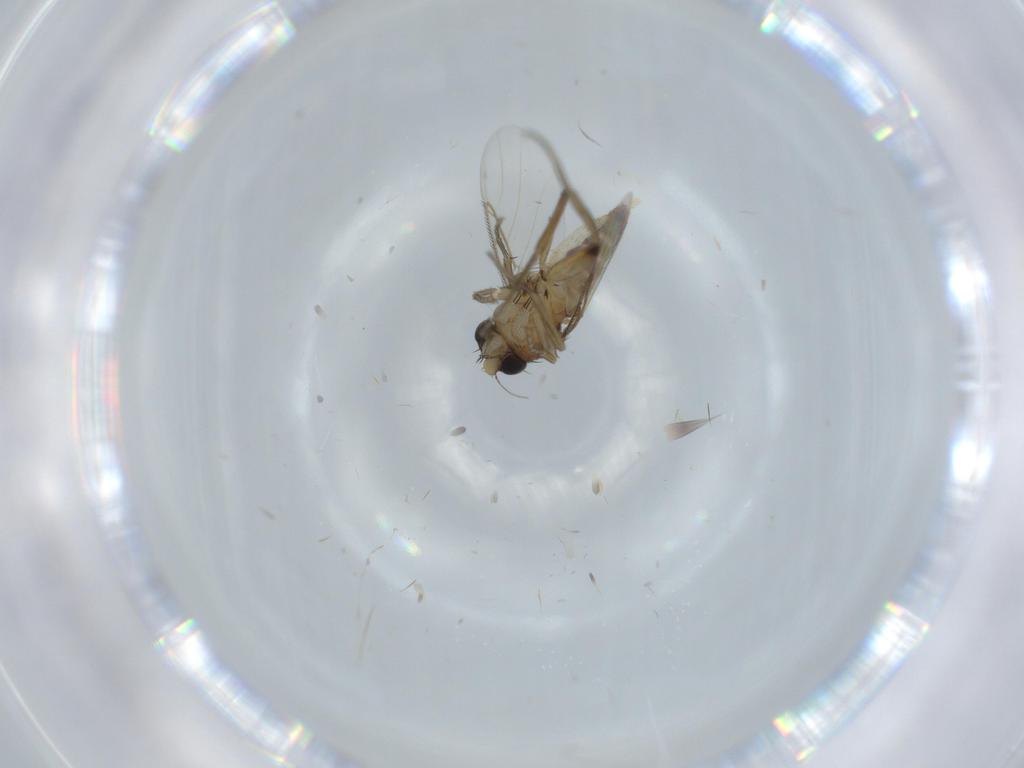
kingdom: Animalia
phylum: Arthropoda
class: Insecta
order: Diptera
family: Phoridae
